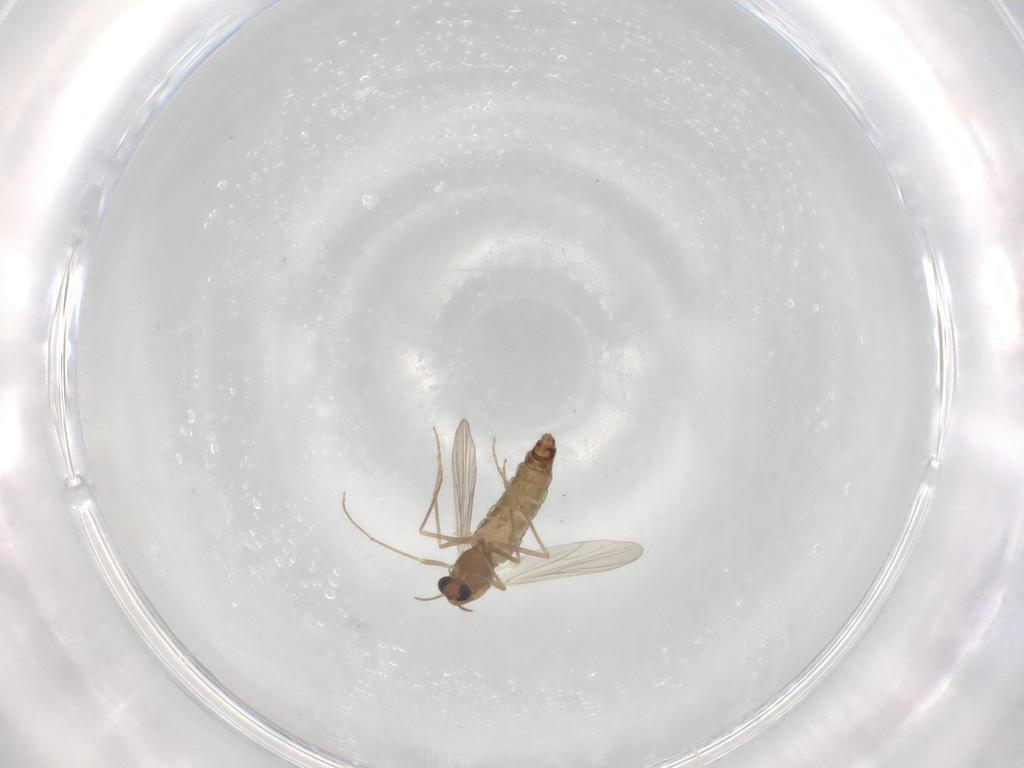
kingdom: Animalia
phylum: Arthropoda
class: Insecta
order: Diptera
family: Chironomidae
